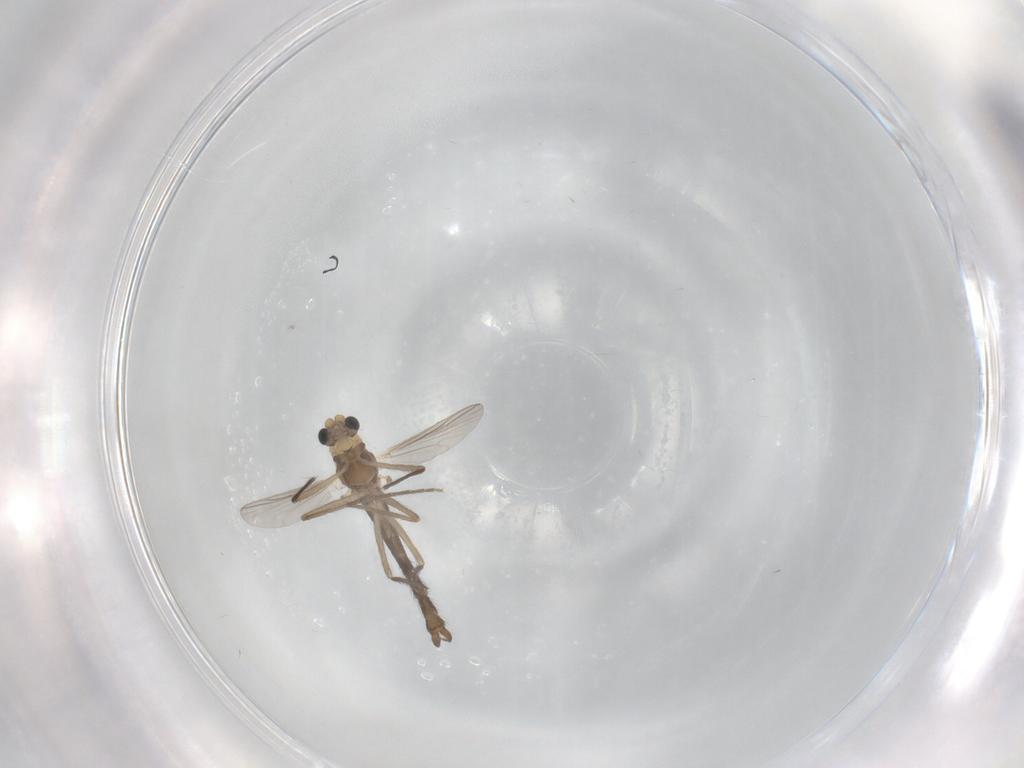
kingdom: Animalia
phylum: Arthropoda
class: Insecta
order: Diptera
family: Chironomidae
